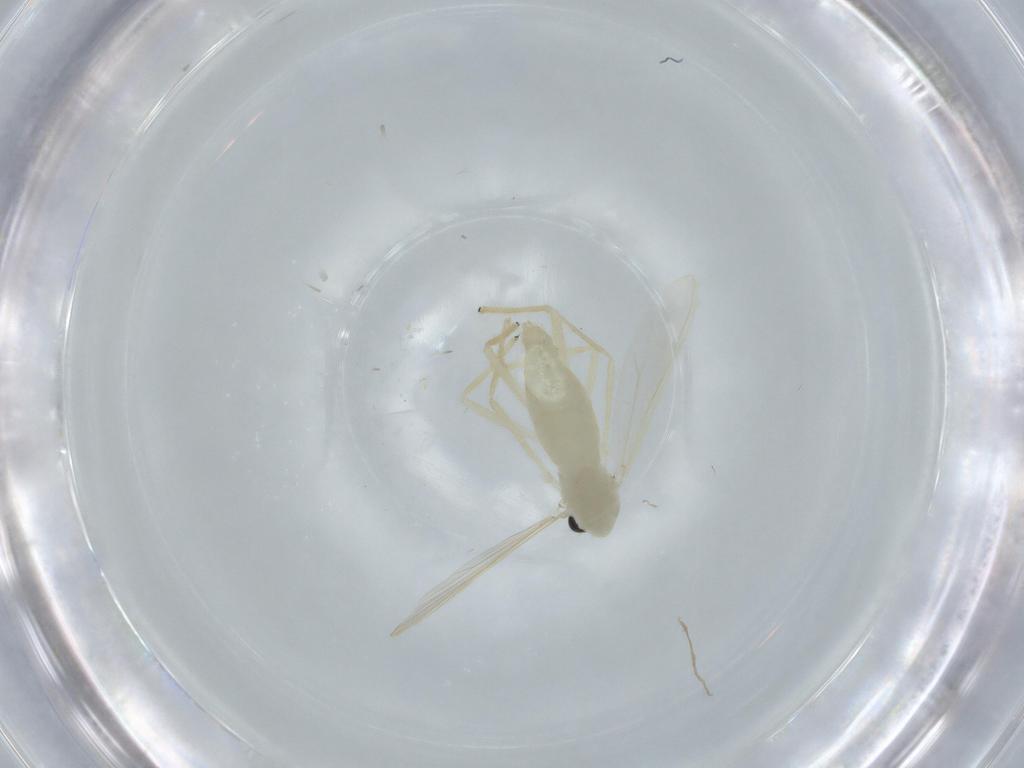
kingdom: Animalia
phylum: Arthropoda
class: Insecta
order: Diptera
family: Chironomidae
